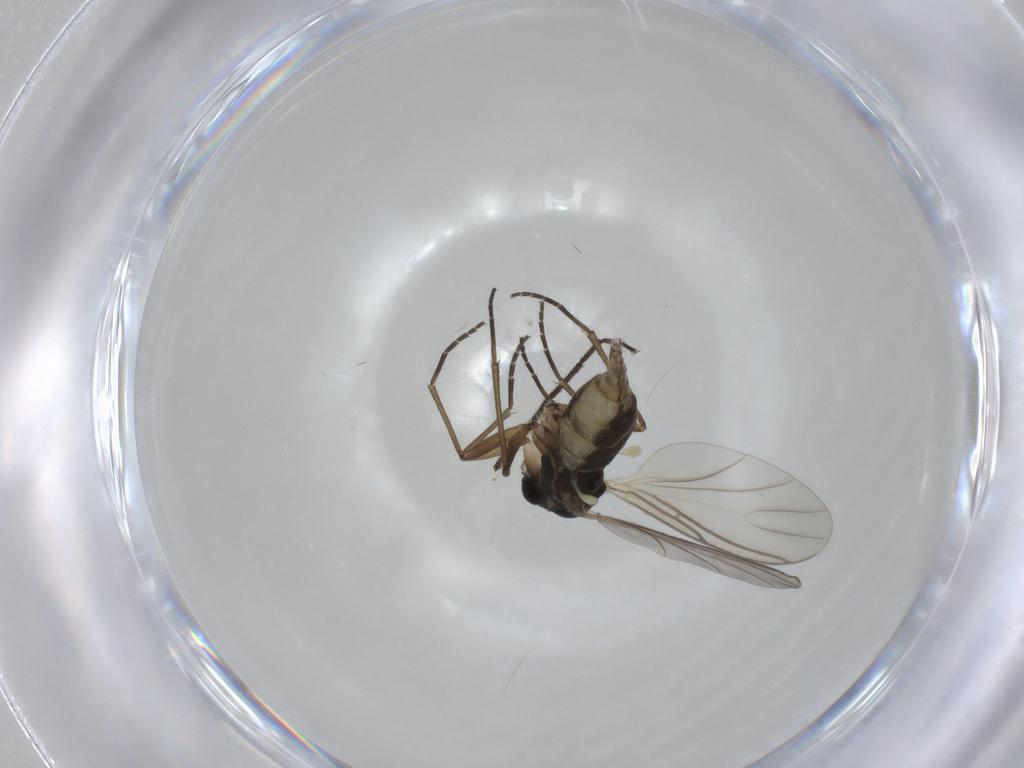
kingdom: Animalia
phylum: Arthropoda
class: Insecta
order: Diptera
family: Empididae
